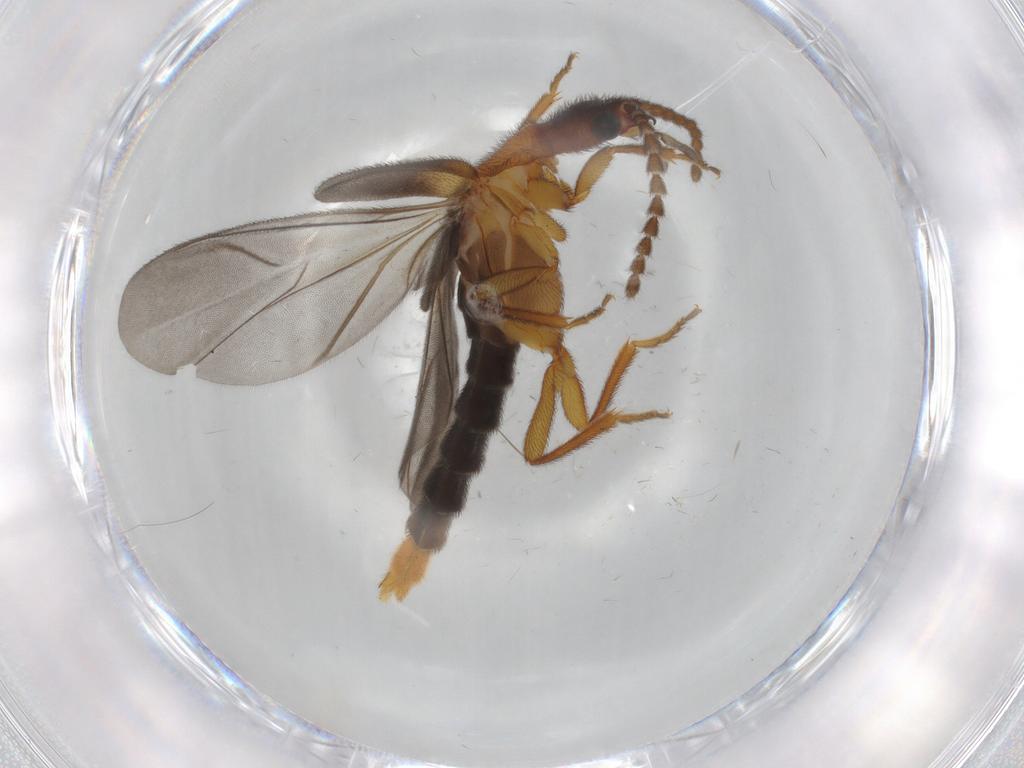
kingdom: Animalia
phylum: Arthropoda
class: Insecta
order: Coleoptera
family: Omethidae
